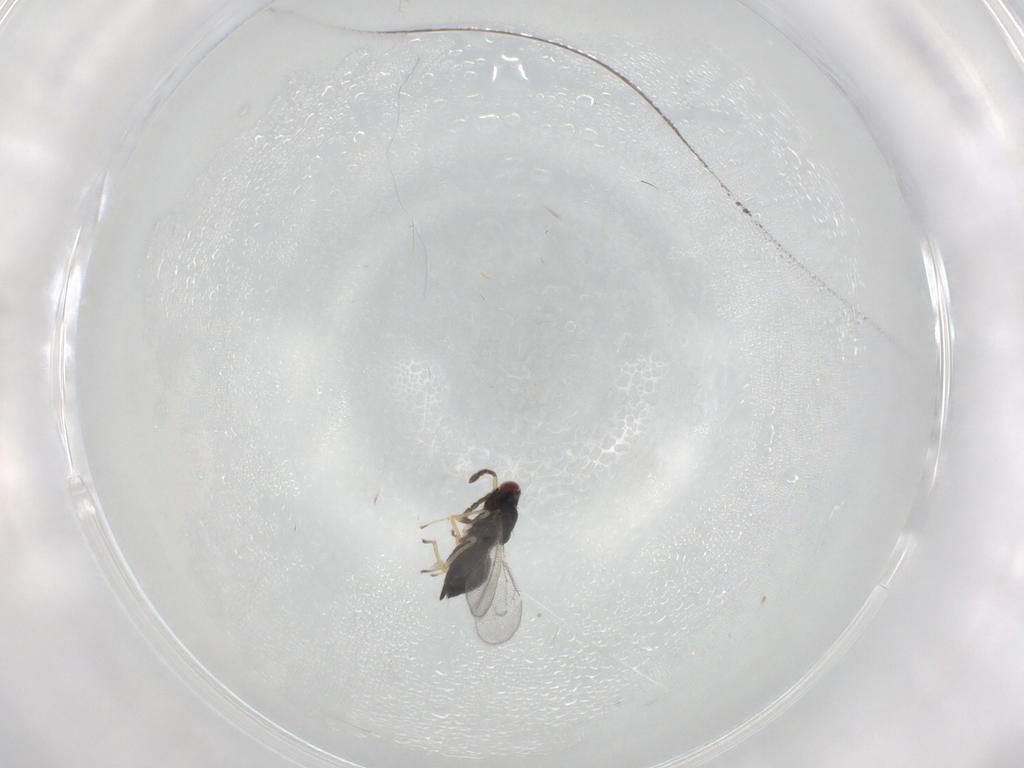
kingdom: Animalia
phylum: Arthropoda
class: Insecta
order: Hymenoptera
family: Eulophidae
